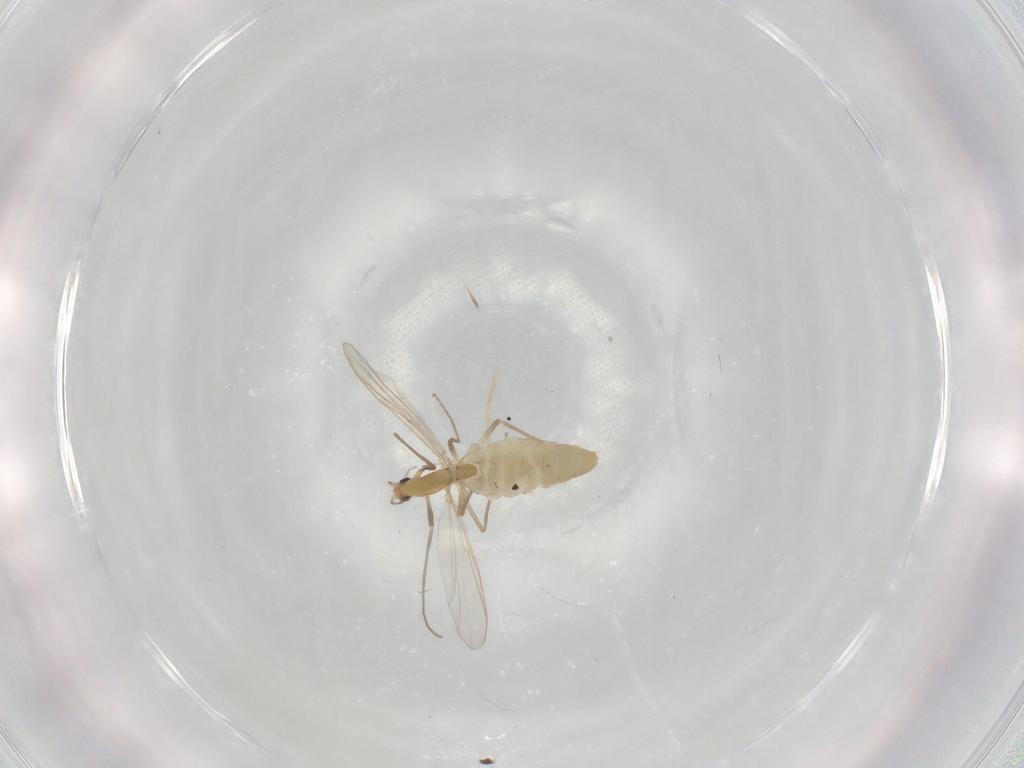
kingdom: Animalia
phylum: Arthropoda
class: Insecta
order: Diptera
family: Chironomidae
